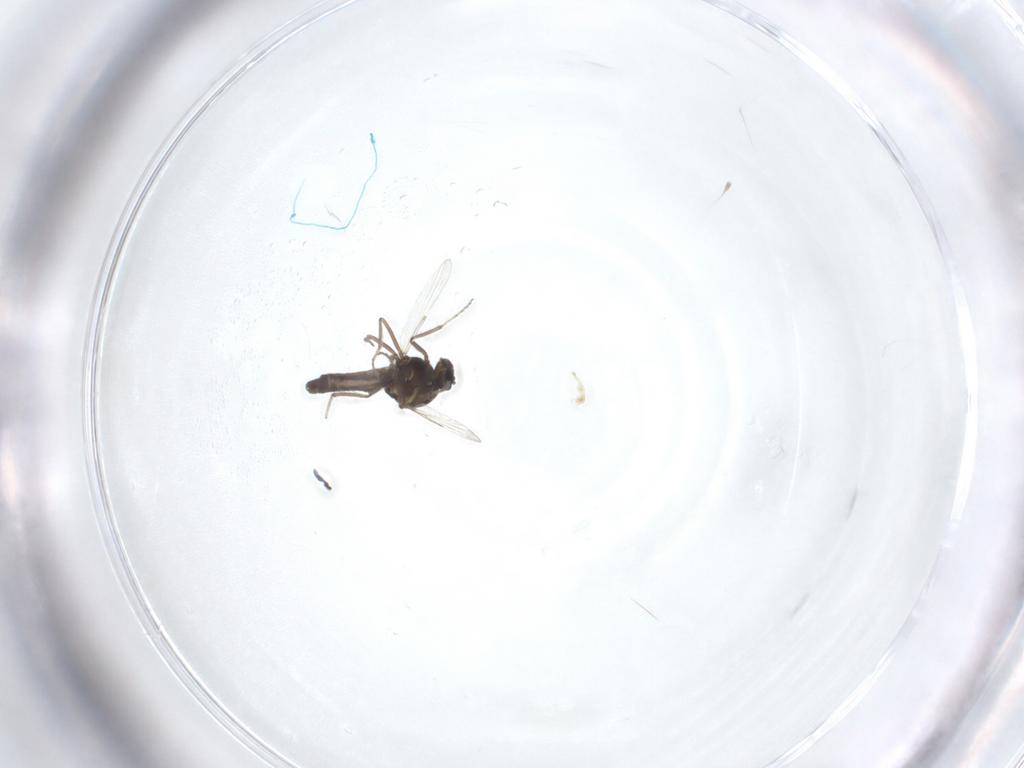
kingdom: Animalia
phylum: Arthropoda
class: Insecta
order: Diptera
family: Ceratopogonidae
